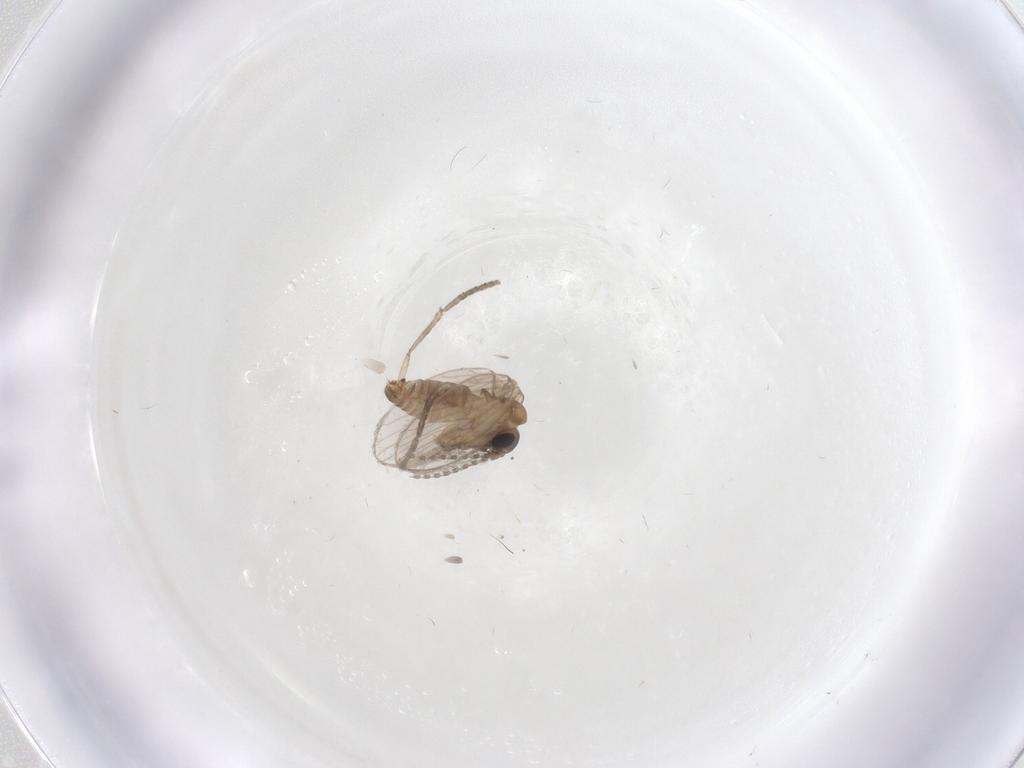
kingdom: Animalia
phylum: Arthropoda
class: Insecta
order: Diptera
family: Psychodidae
